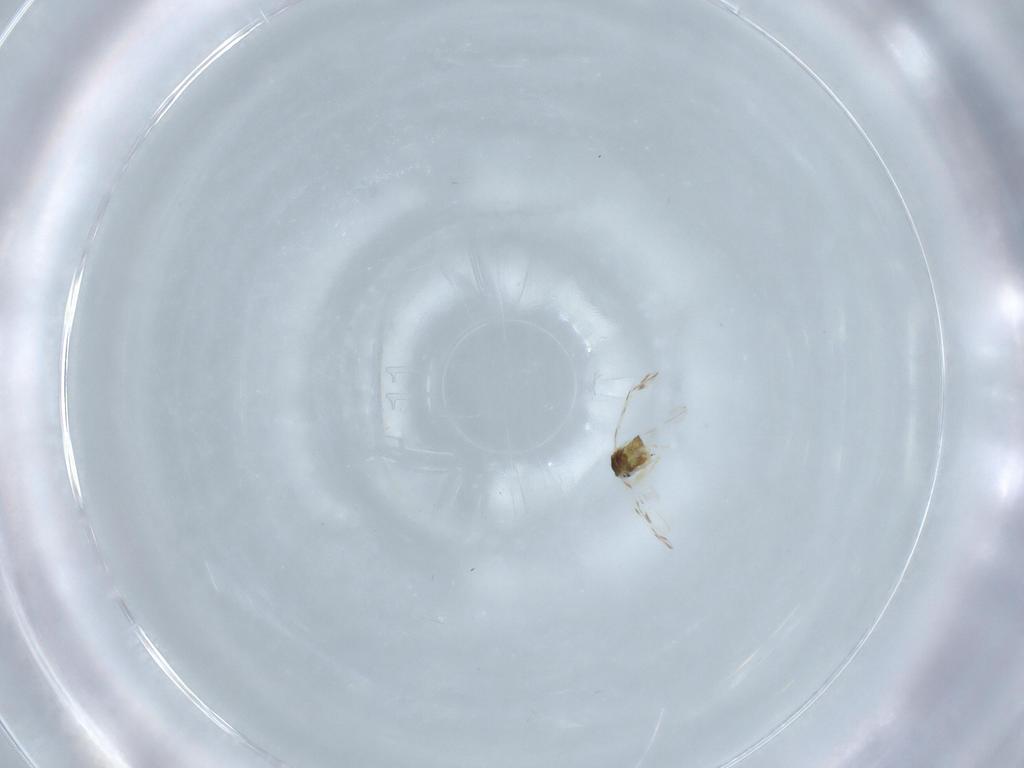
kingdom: Animalia
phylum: Arthropoda
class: Insecta
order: Hemiptera
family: Aleyrodidae
